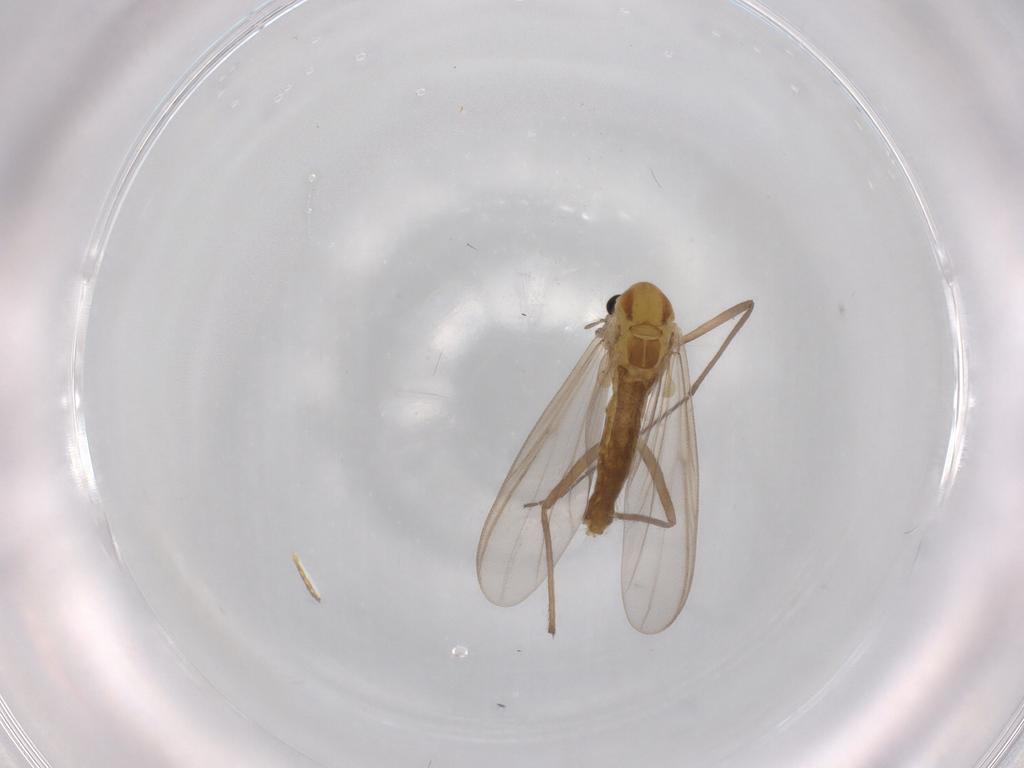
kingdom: Animalia
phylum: Arthropoda
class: Insecta
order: Diptera
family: Chironomidae
